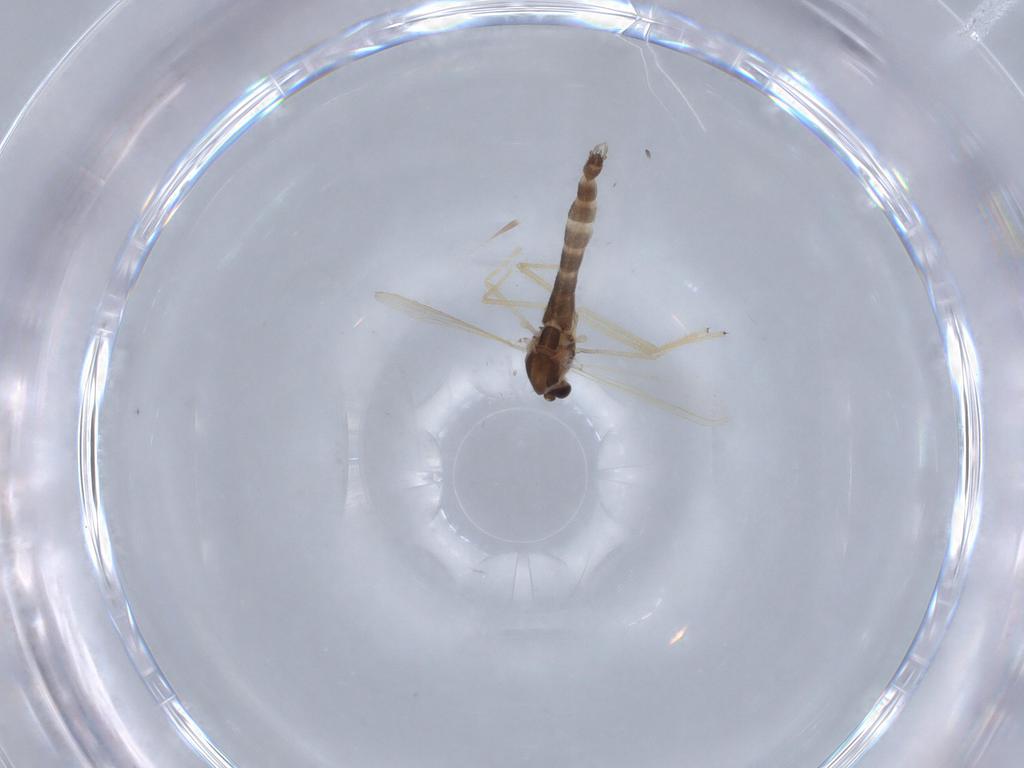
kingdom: Animalia
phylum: Arthropoda
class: Insecta
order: Diptera
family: Chironomidae
